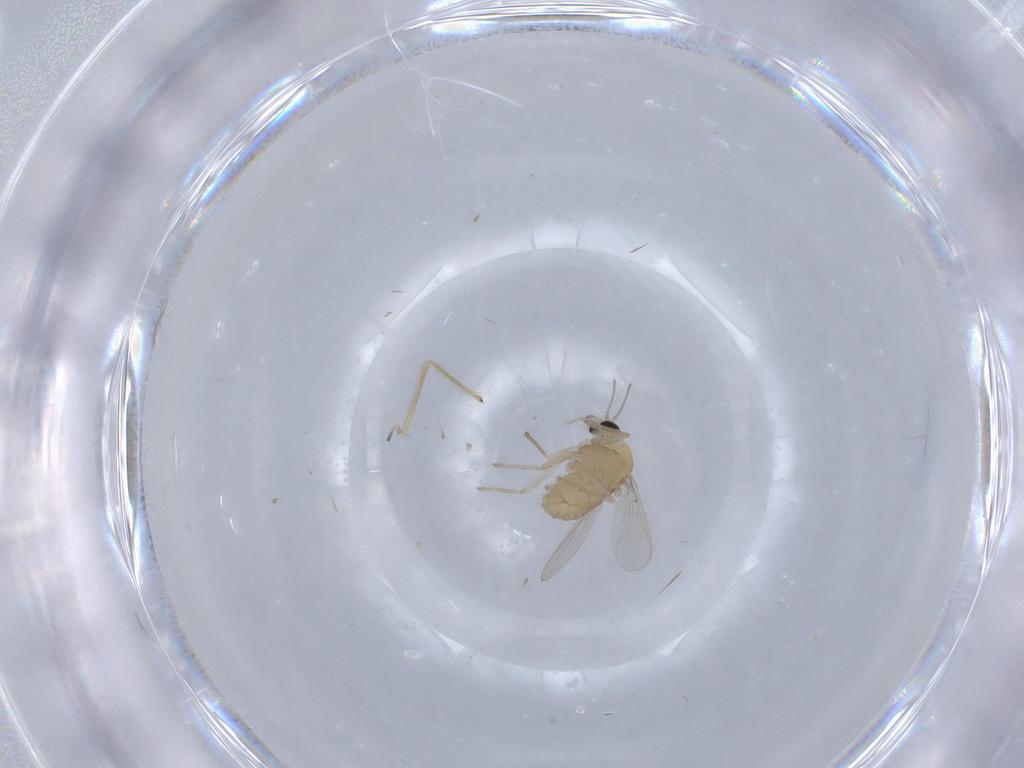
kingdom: Animalia
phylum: Arthropoda
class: Insecta
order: Diptera
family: Chironomidae
